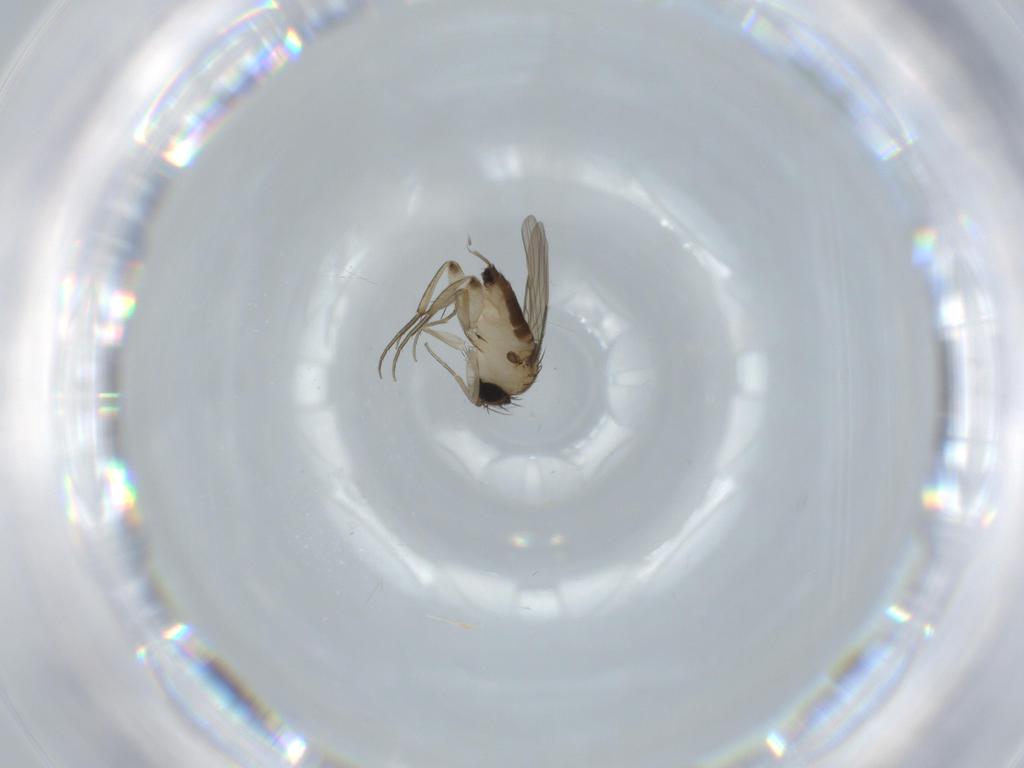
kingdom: Animalia
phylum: Arthropoda
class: Insecta
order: Diptera
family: Phoridae
